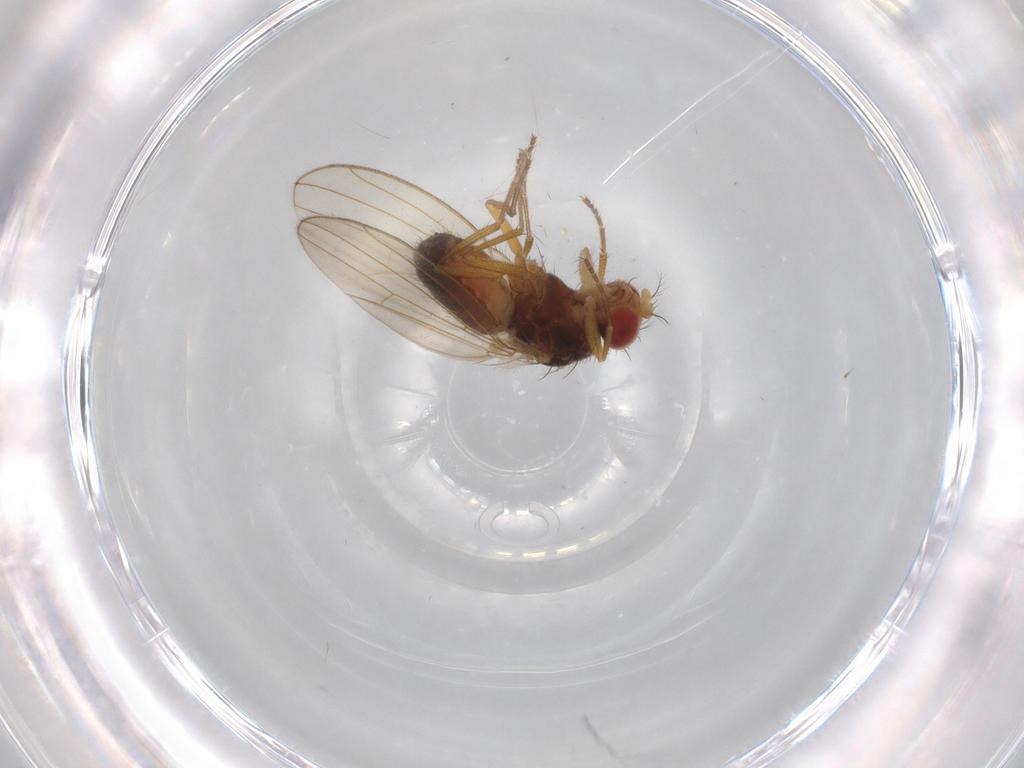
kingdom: Animalia
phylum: Arthropoda
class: Insecta
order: Diptera
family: Drosophilidae
